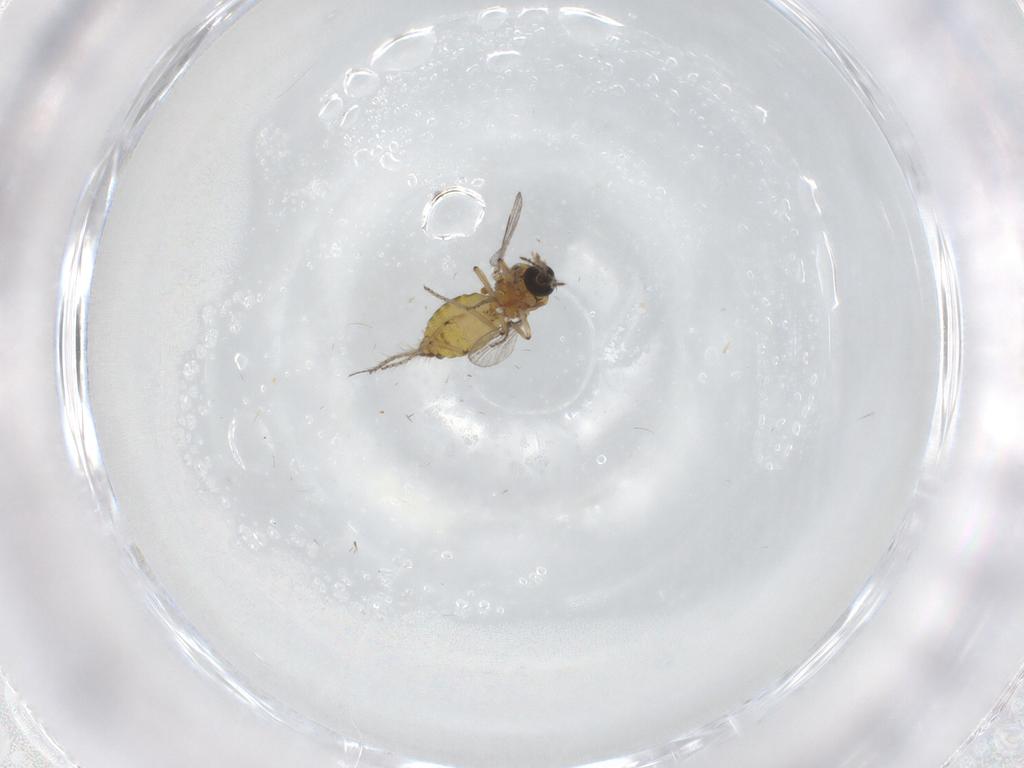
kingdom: Animalia
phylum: Arthropoda
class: Insecta
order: Diptera
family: Ceratopogonidae
